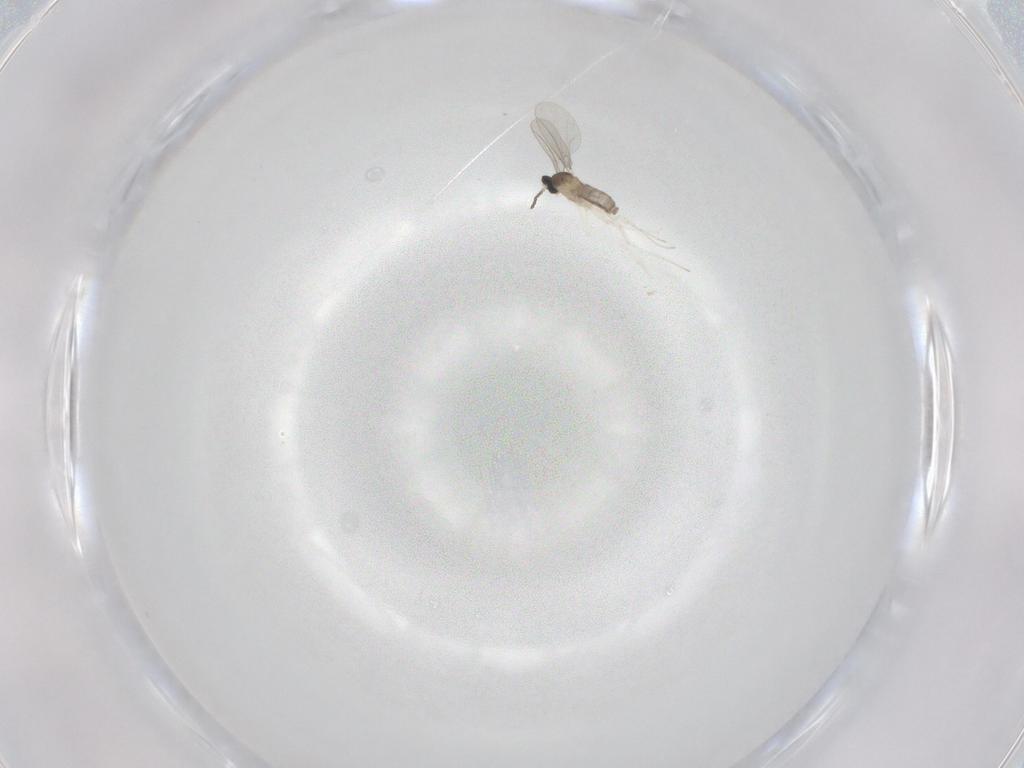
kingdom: Animalia
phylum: Arthropoda
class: Insecta
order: Diptera
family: Cecidomyiidae
